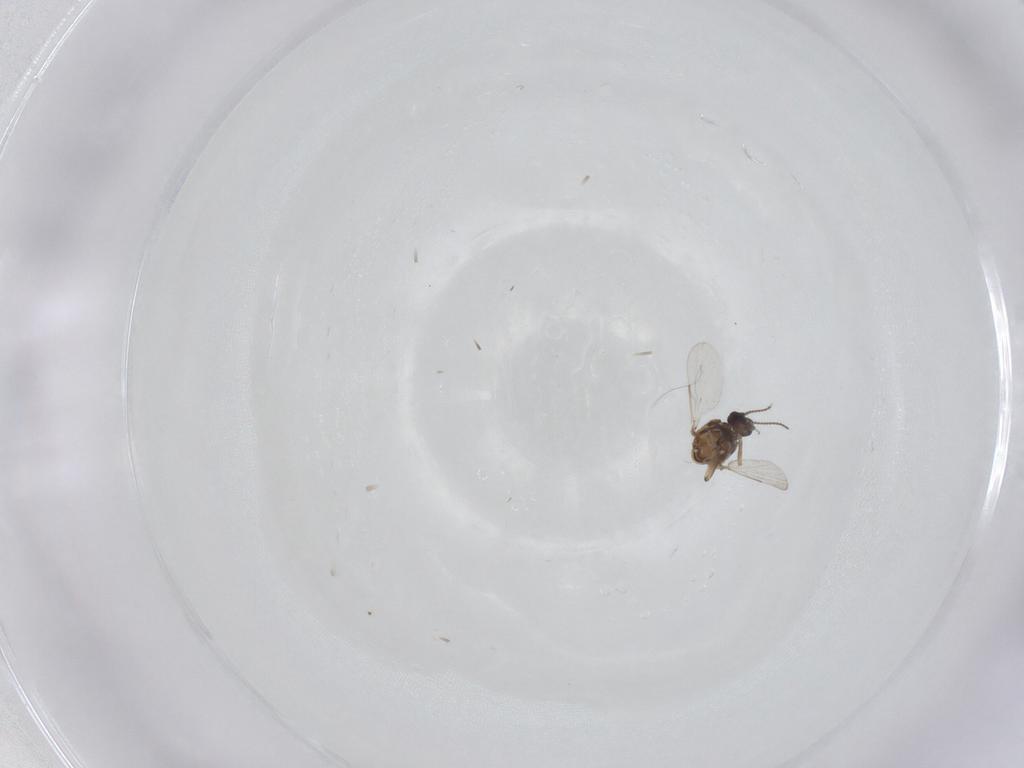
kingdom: Animalia
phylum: Arthropoda
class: Insecta
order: Diptera
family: Ceratopogonidae
